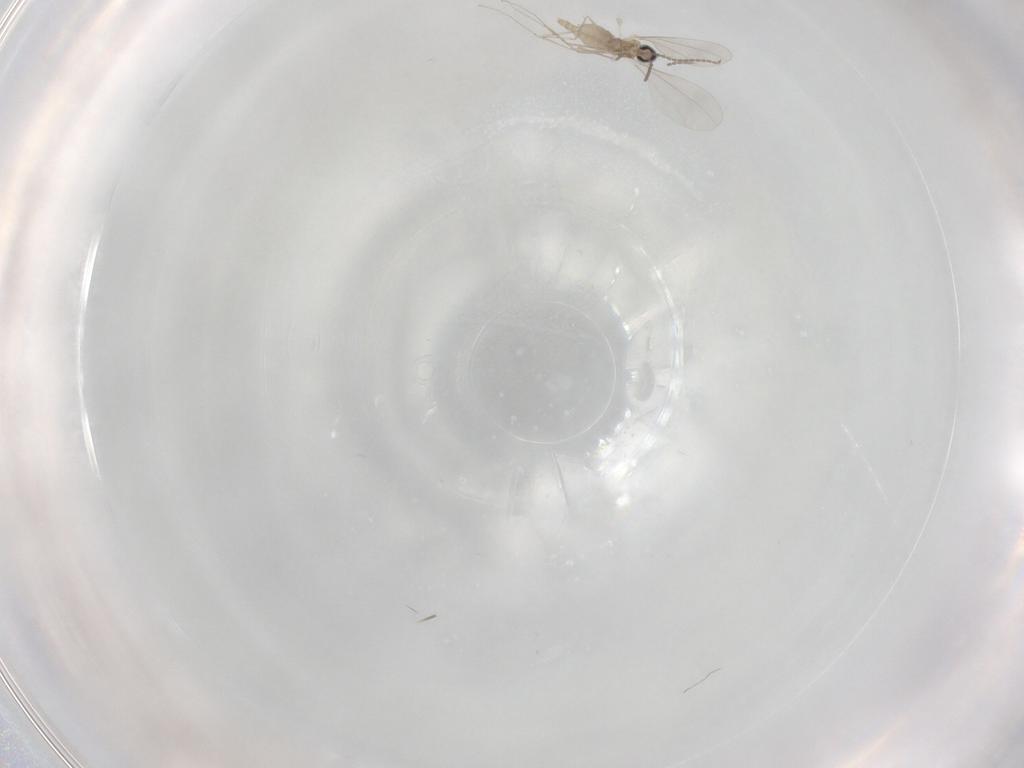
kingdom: Animalia
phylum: Arthropoda
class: Insecta
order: Diptera
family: Cecidomyiidae
